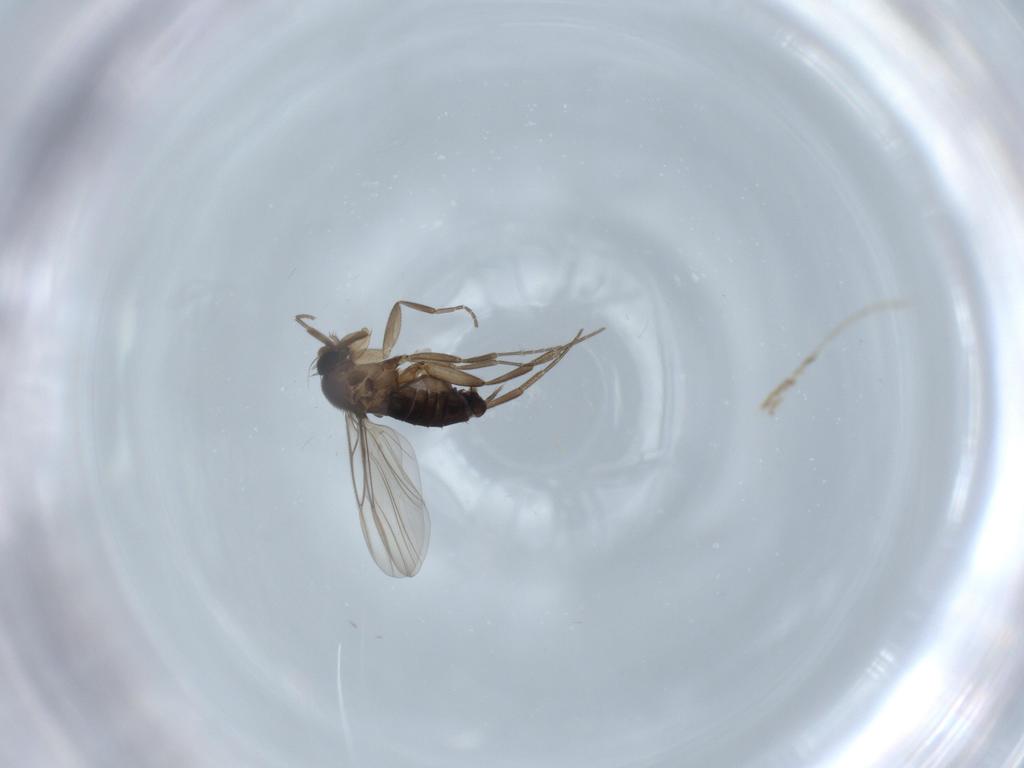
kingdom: Animalia
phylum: Arthropoda
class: Insecta
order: Diptera
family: Phoridae
